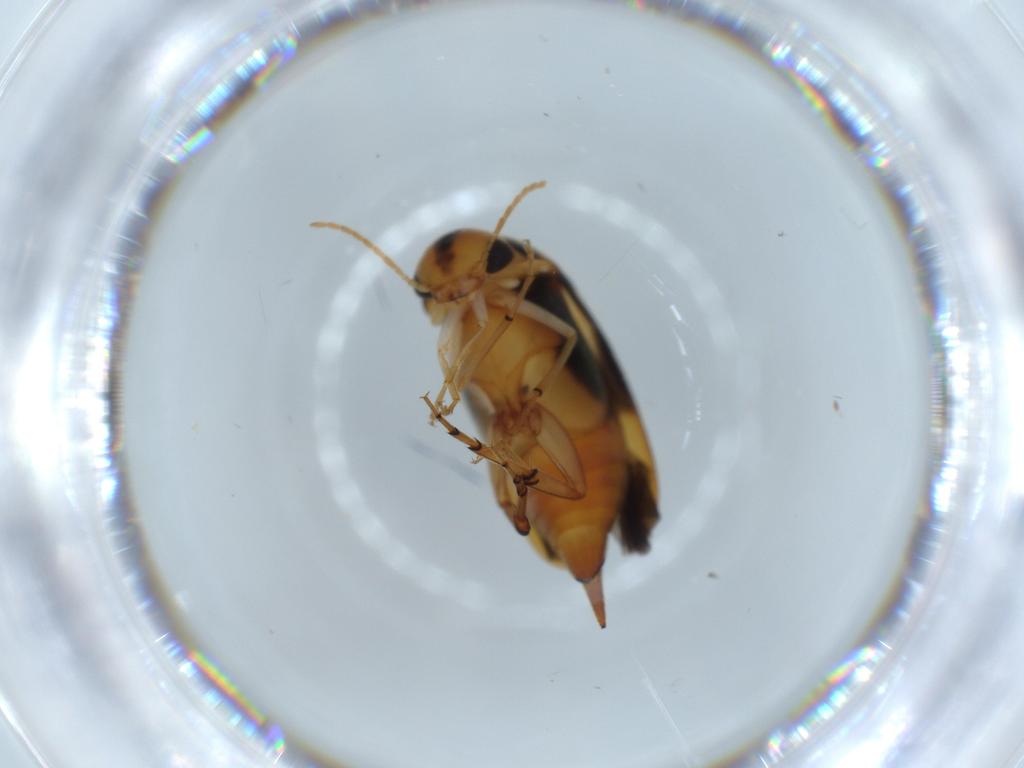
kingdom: Animalia
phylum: Arthropoda
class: Insecta
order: Coleoptera
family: Mordellidae
